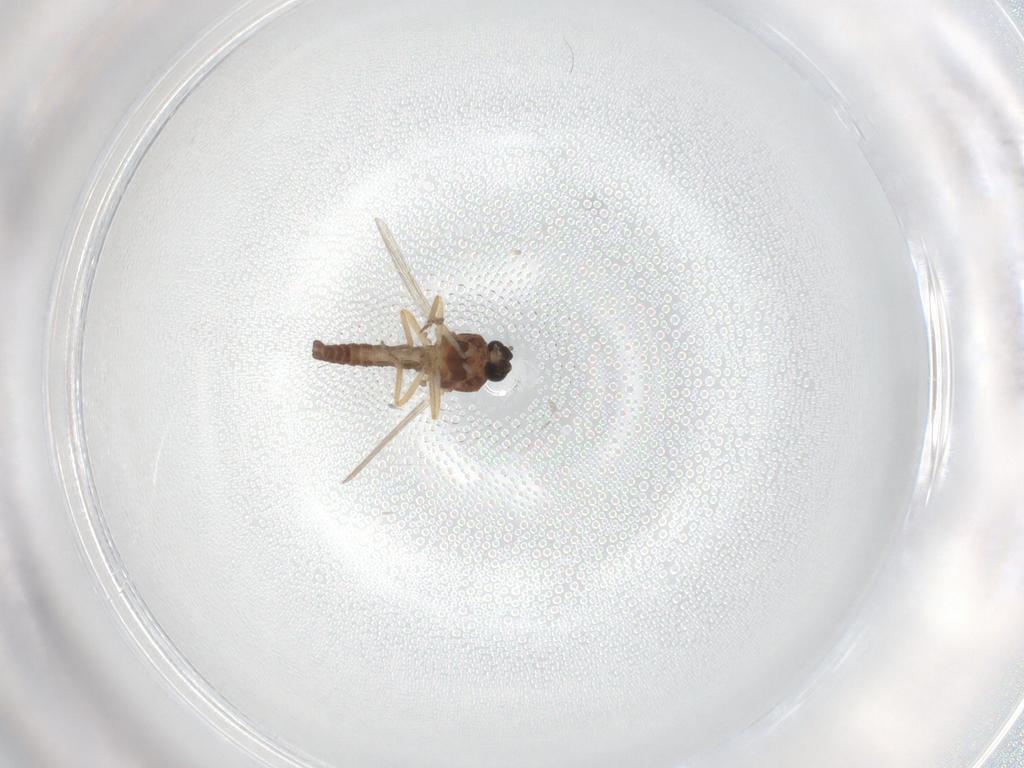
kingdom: Animalia
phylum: Arthropoda
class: Insecta
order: Diptera
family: Ceratopogonidae
